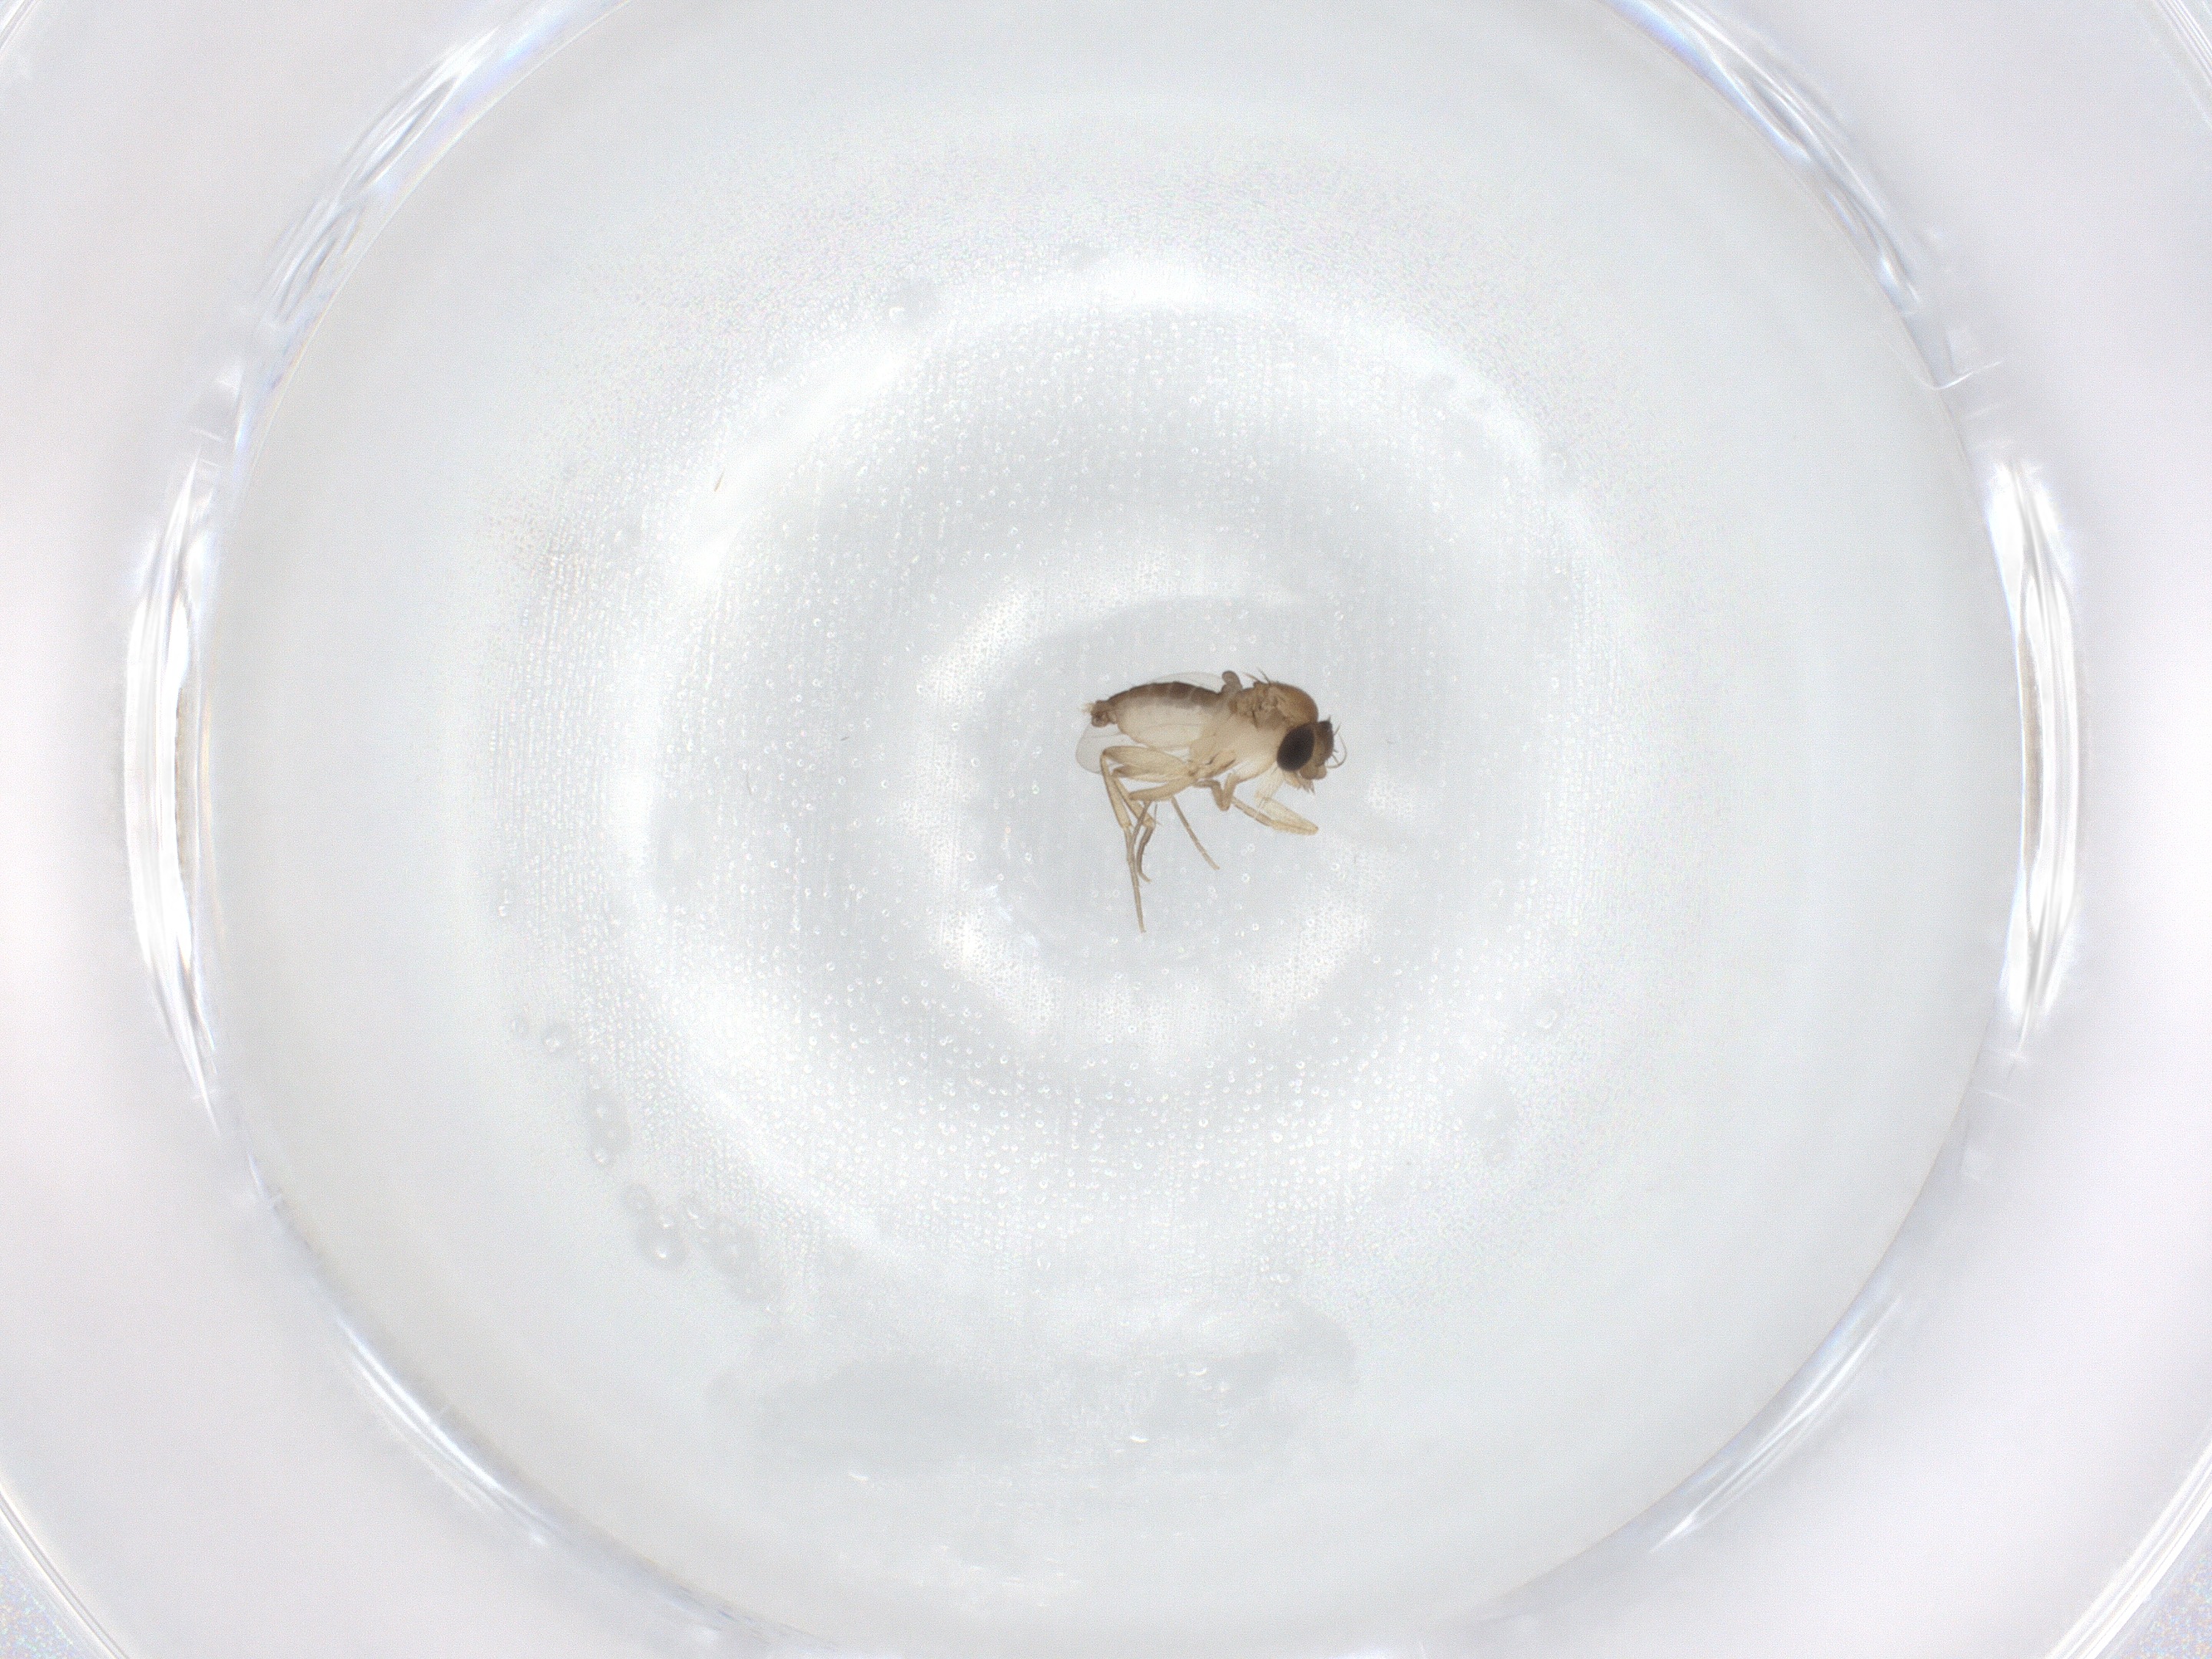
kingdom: Animalia
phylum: Arthropoda
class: Insecta
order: Diptera
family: Phoridae
